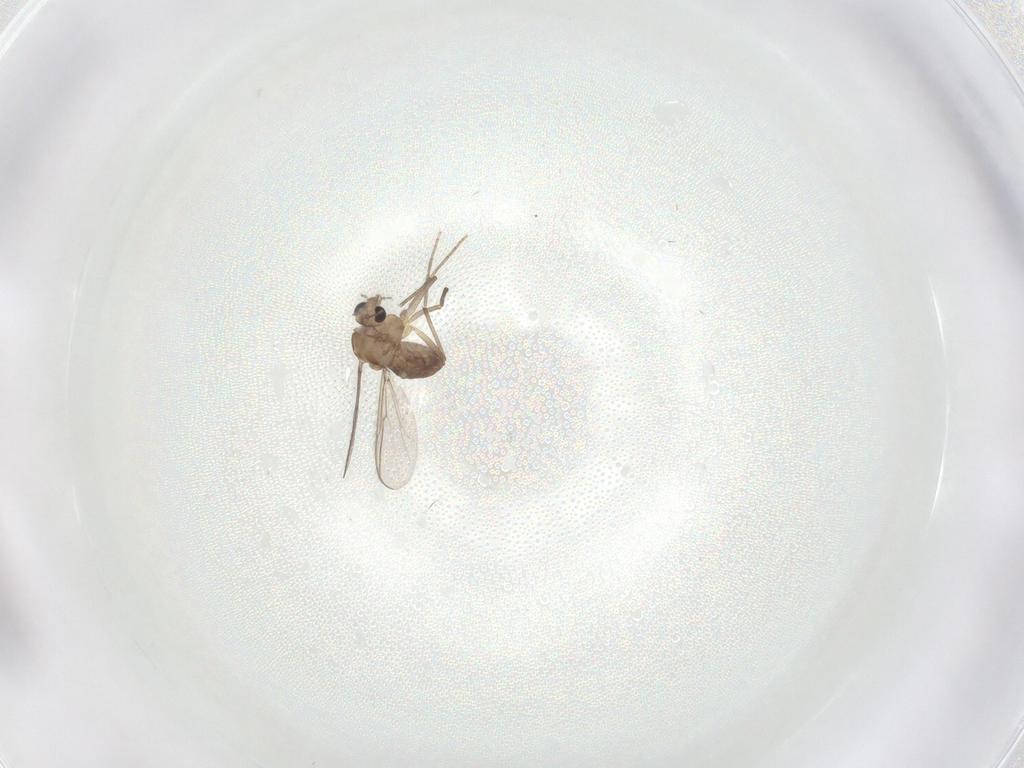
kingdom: Animalia
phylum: Arthropoda
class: Insecta
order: Diptera
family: Chironomidae
